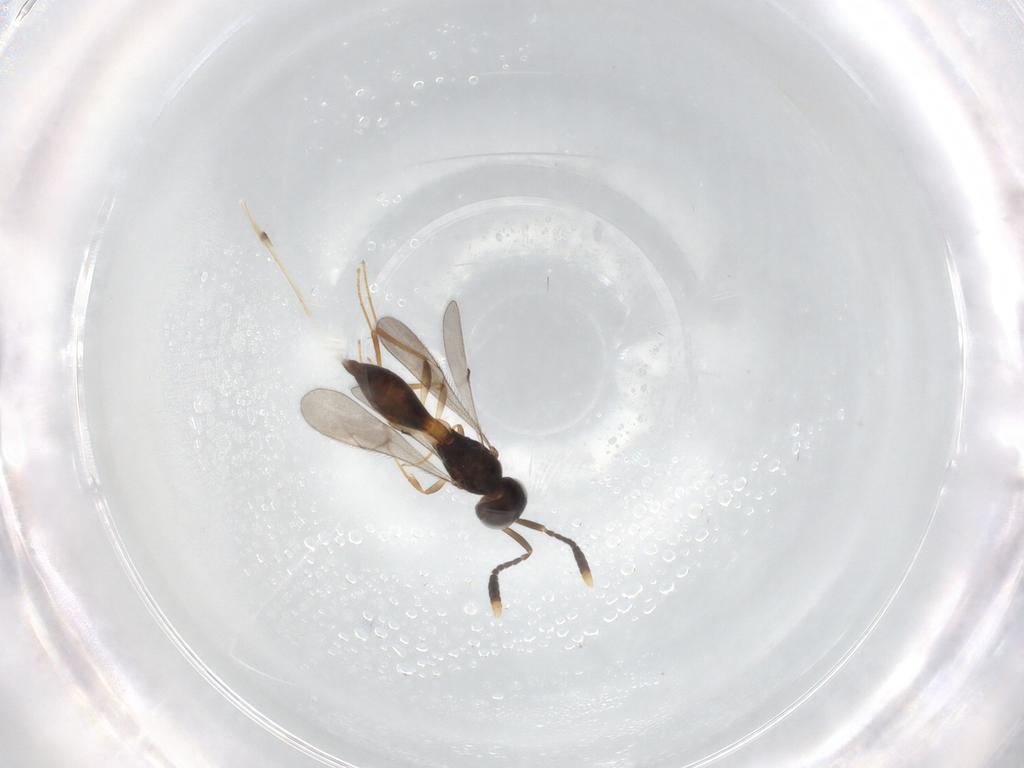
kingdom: Animalia
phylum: Arthropoda
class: Insecta
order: Hymenoptera
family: Scelionidae
